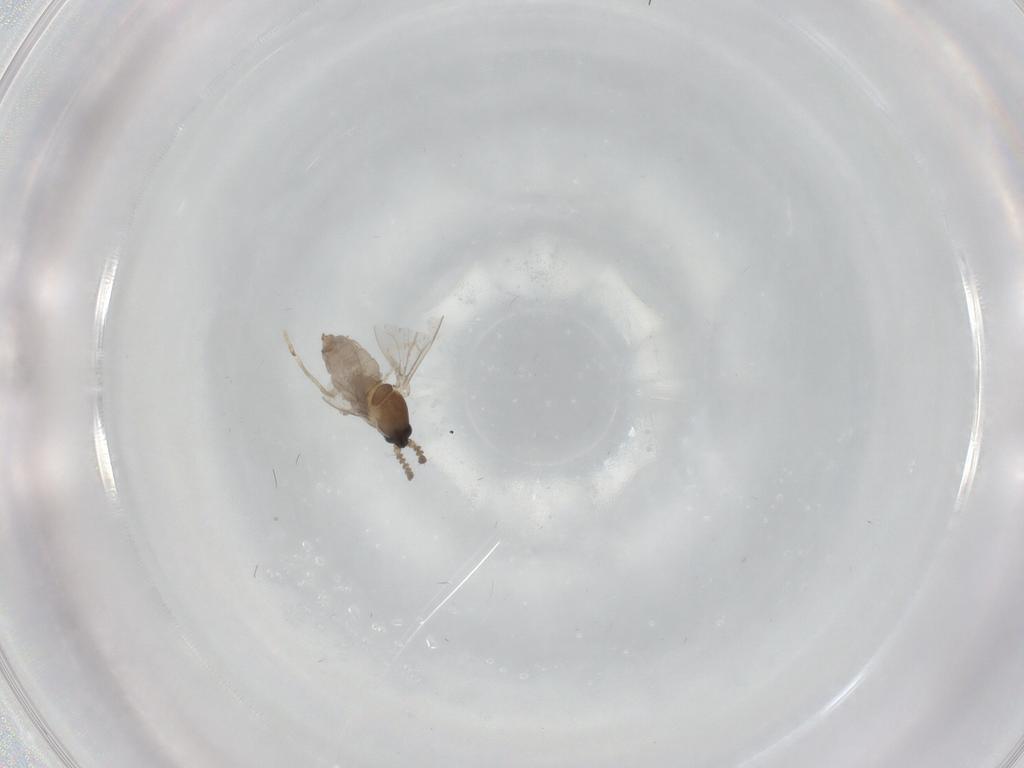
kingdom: Animalia
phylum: Arthropoda
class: Insecta
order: Diptera
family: Cecidomyiidae
